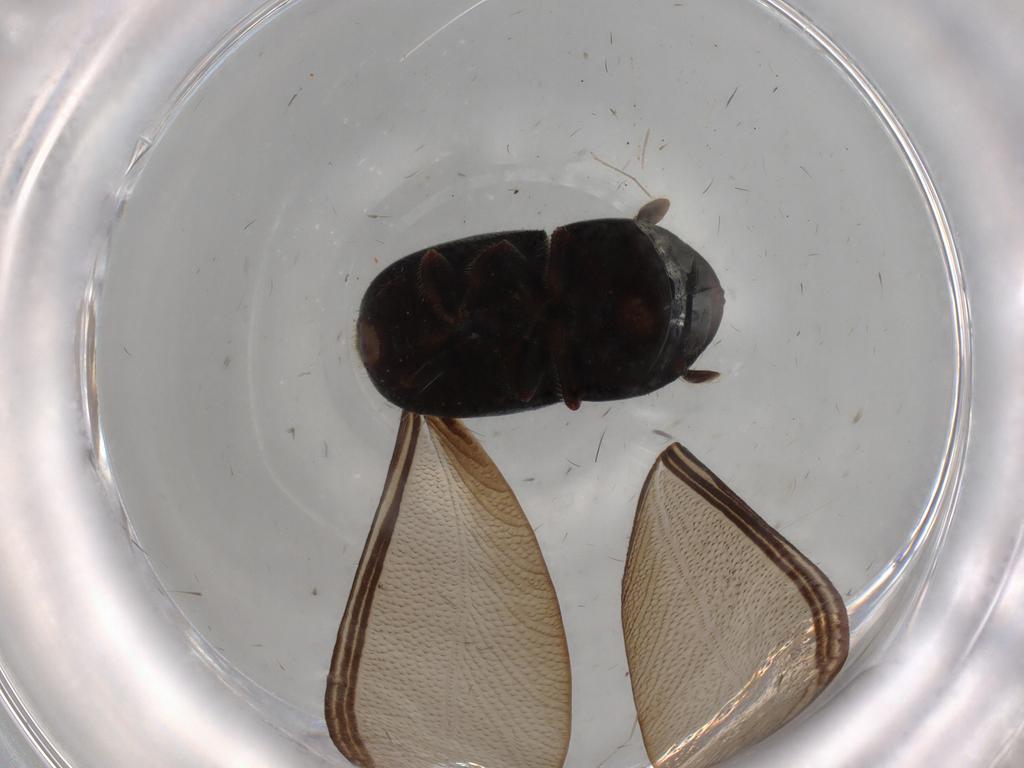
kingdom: Animalia
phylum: Arthropoda
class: Insecta
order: Coleoptera
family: Curculionidae
